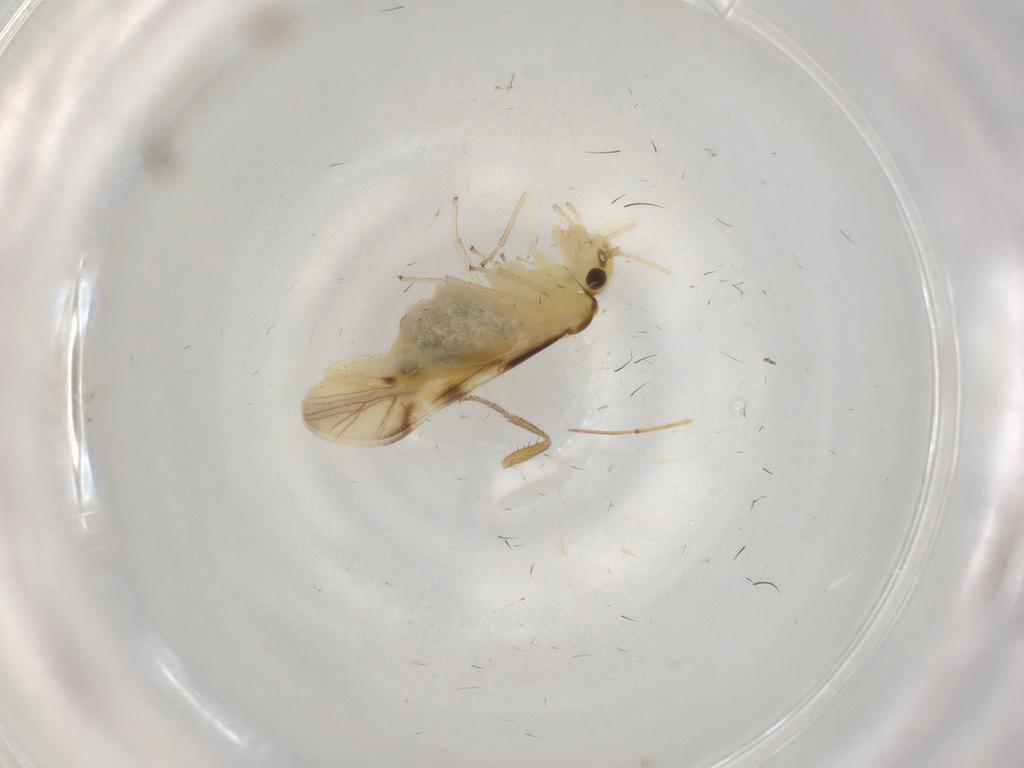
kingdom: Animalia
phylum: Arthropoda
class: Insecta
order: Psocodea
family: Caeciliusidae
